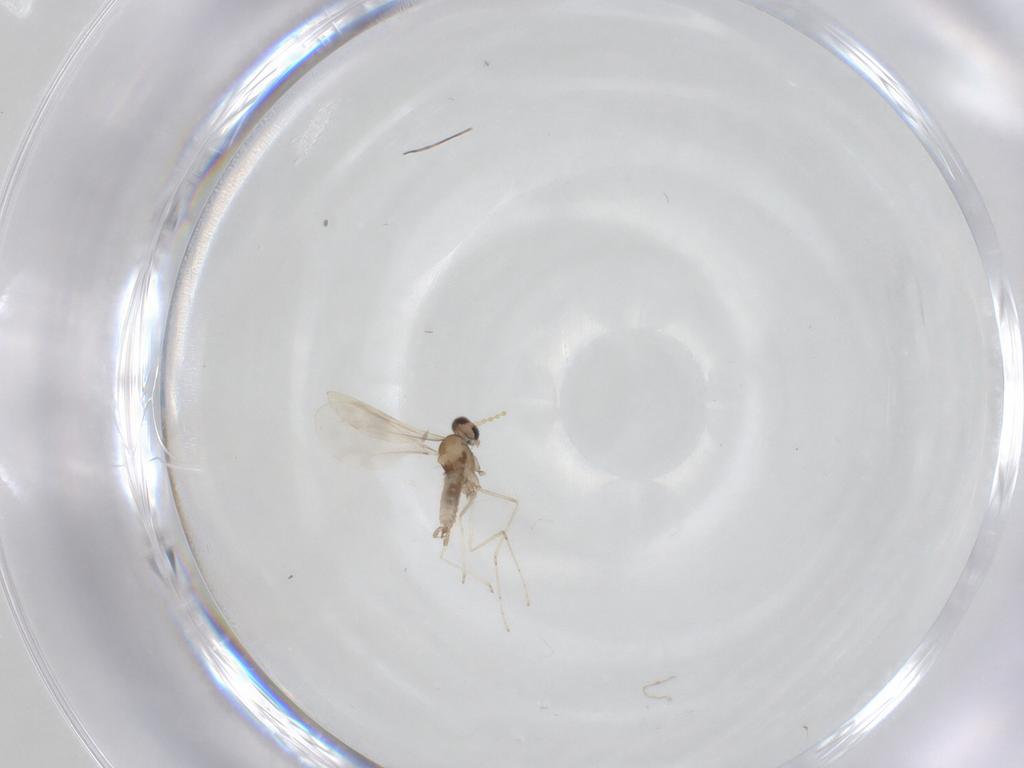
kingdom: Animalia
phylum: Arthropoda
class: Insecta
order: Diptera
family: Cecidomyiidae
